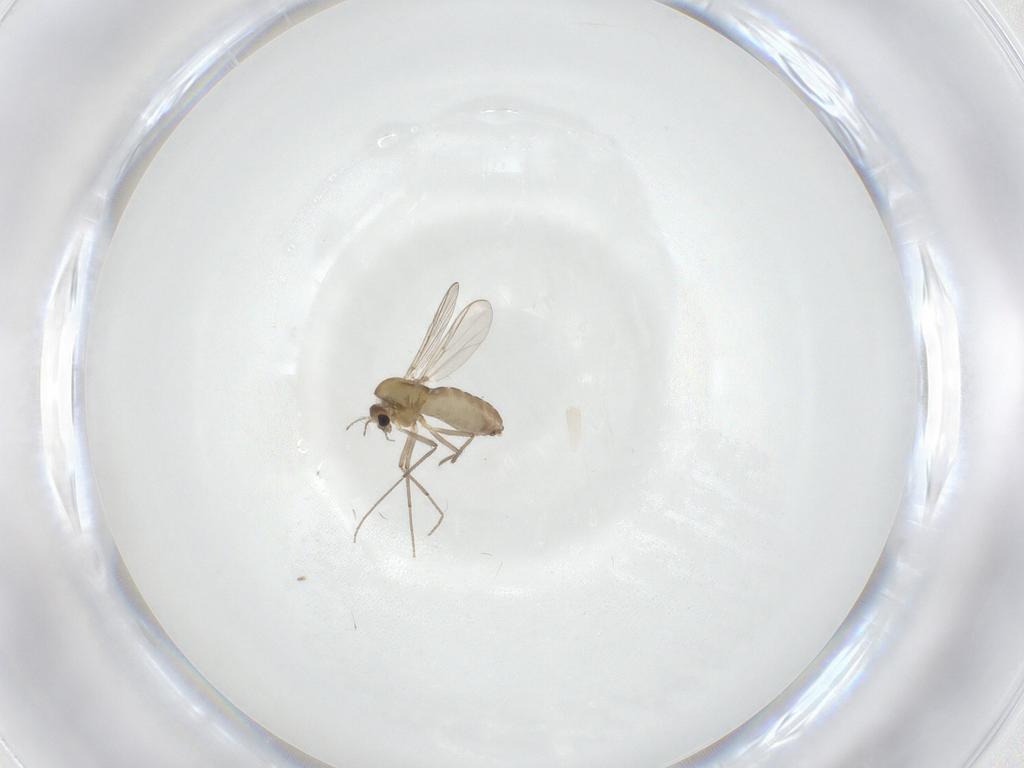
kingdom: Animalia
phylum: Arthropoda
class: Insecta
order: Diptera
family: Chironomidae
